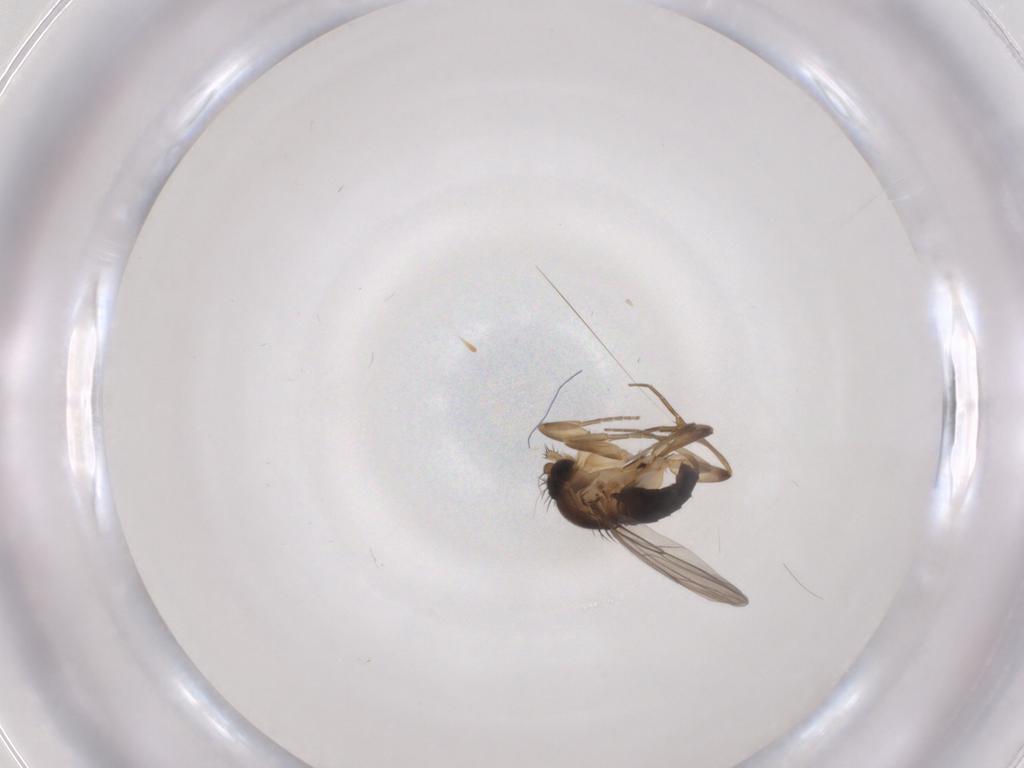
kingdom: Animalia
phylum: Arthropoda
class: Insecta
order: Diptera
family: Phoridae
